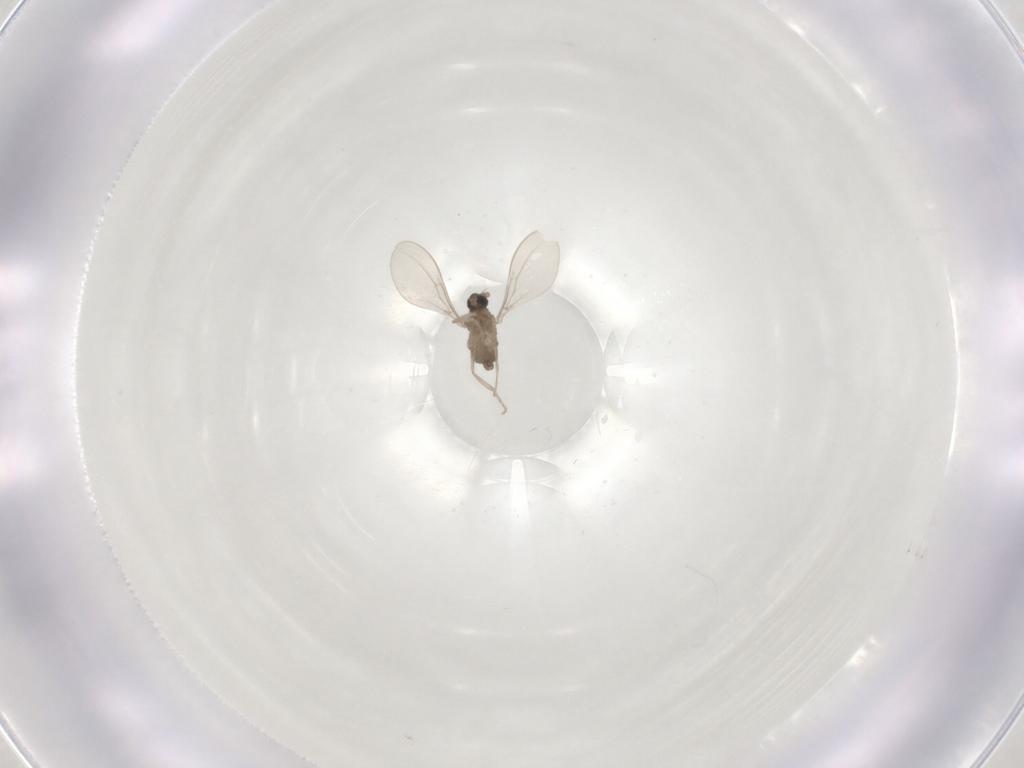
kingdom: Animalia
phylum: Arthropoda
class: Insecta
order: Diptera
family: Cecidomyiidae
